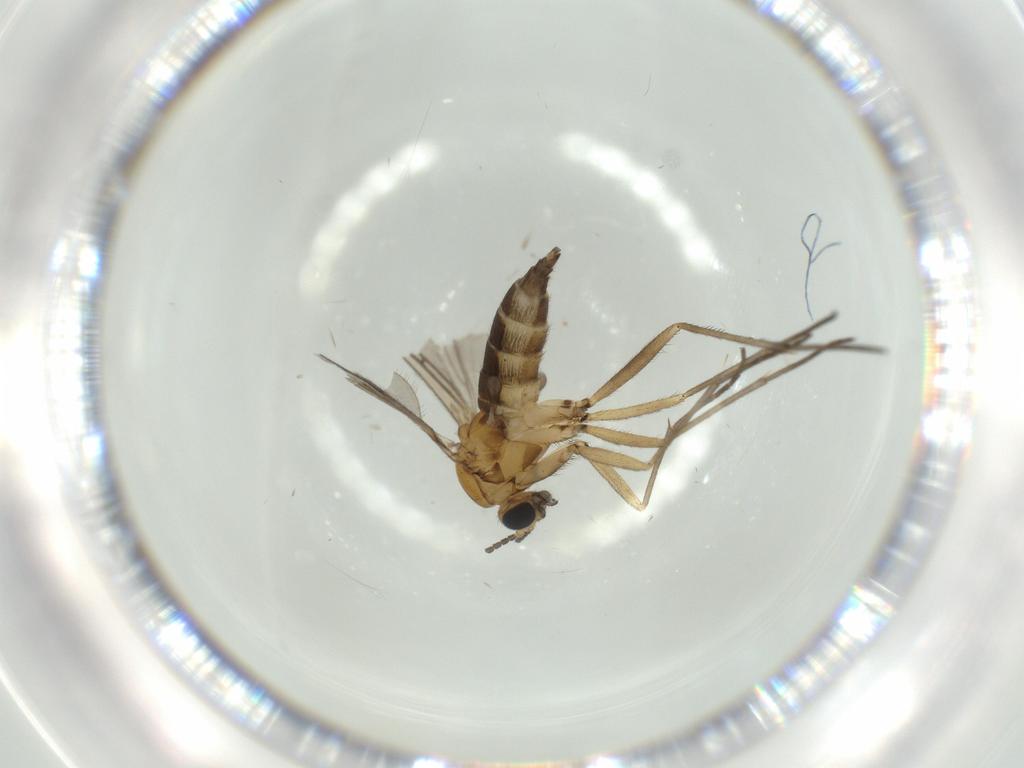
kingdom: Animalia
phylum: Arthropoda
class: Insecta
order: Diptera
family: Sciaridae
